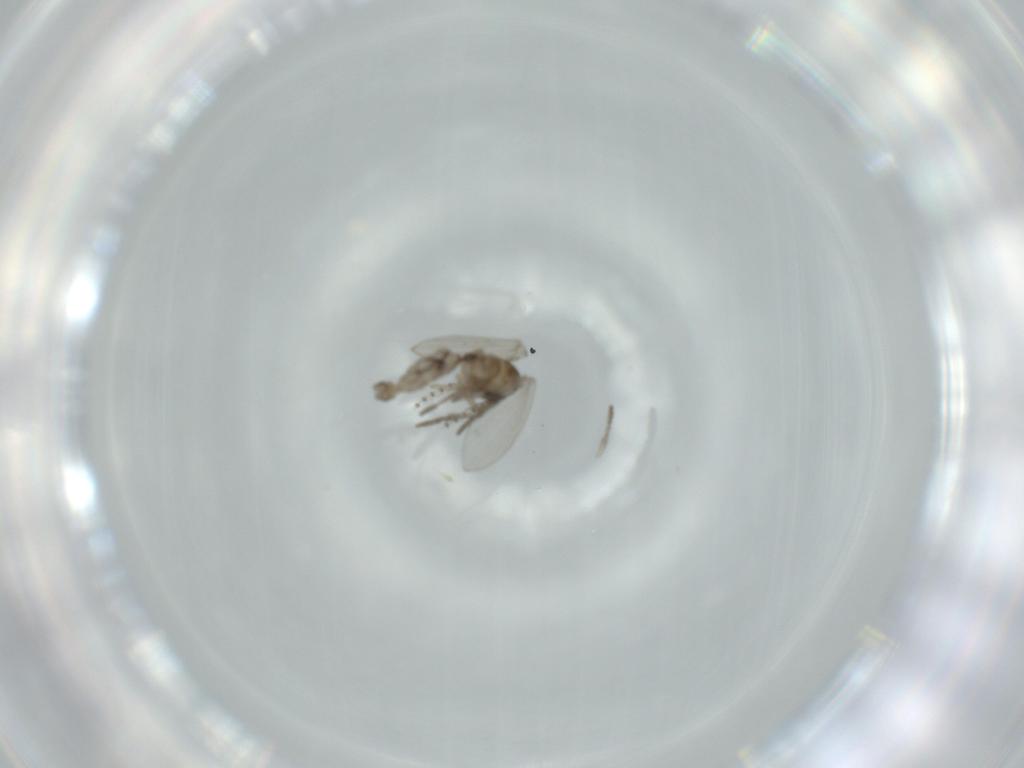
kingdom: Animalia
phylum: Arthropoda
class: Insecta
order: Diptera
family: Psychodidae
